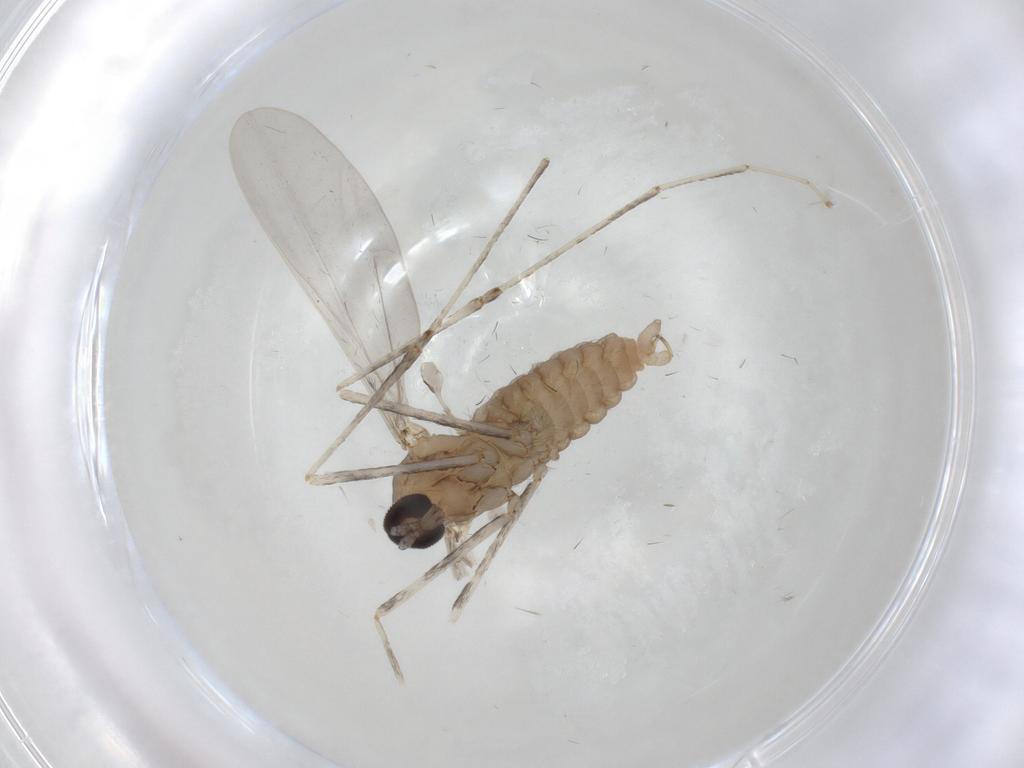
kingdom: Animalia
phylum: Arthropoda
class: Insecta
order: Diptera
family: Cecidomyiidae
